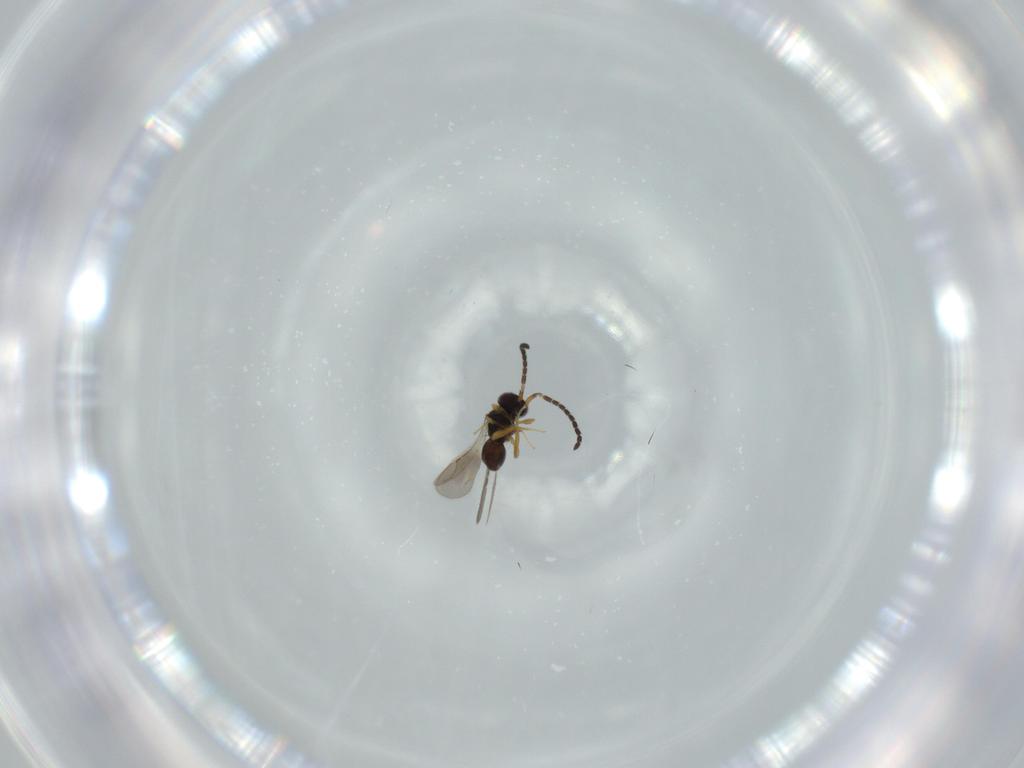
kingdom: Animalia
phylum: Arthropoda
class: Insecta
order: Hymenoptera
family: Ceraphronidae
